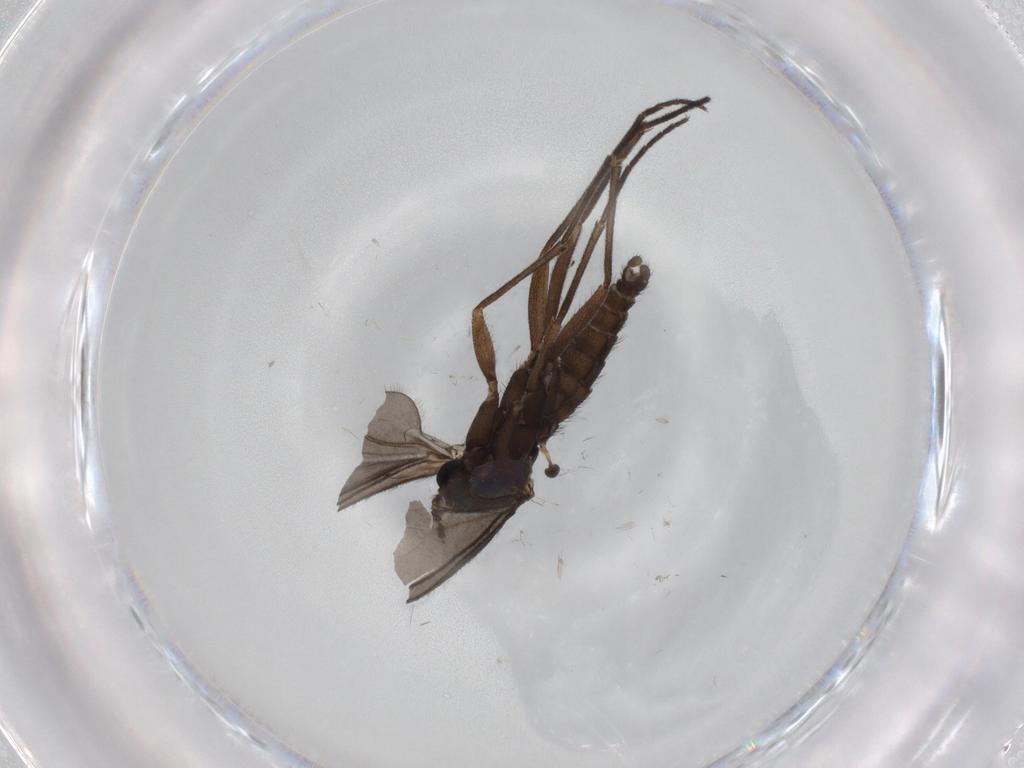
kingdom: Animalia
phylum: Arthropoda
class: Insecta
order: Diptera
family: Sciaridae
